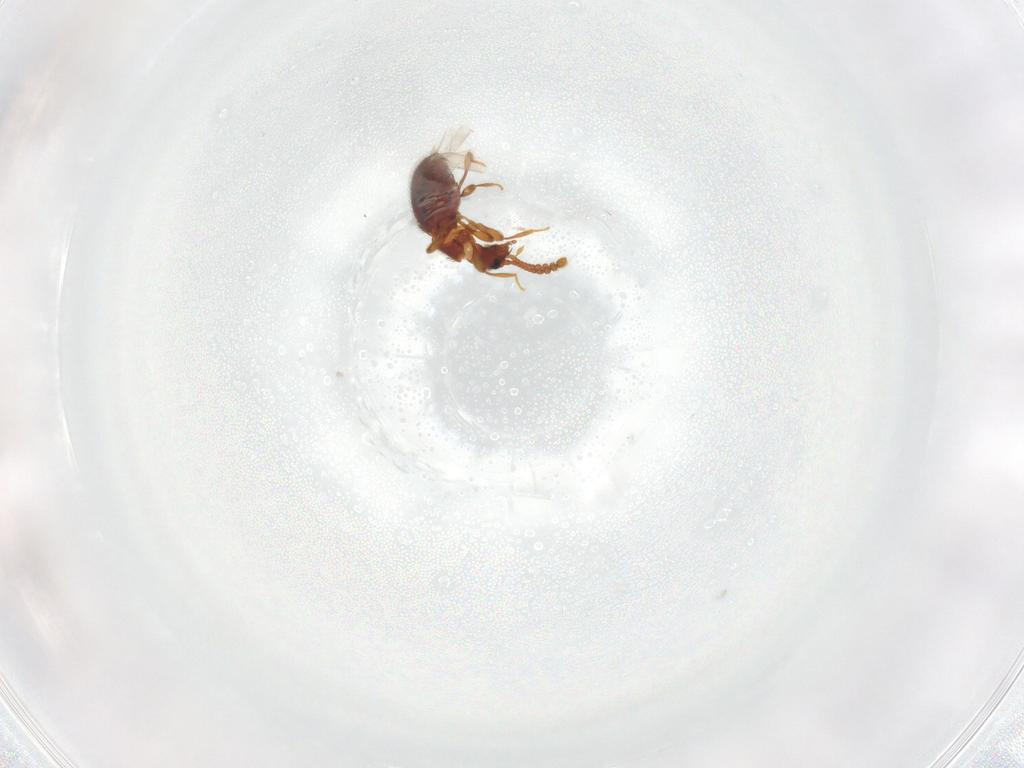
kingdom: Animalia
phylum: Arthropoda
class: Insecta
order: Coleoptera
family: Staphylinidae
